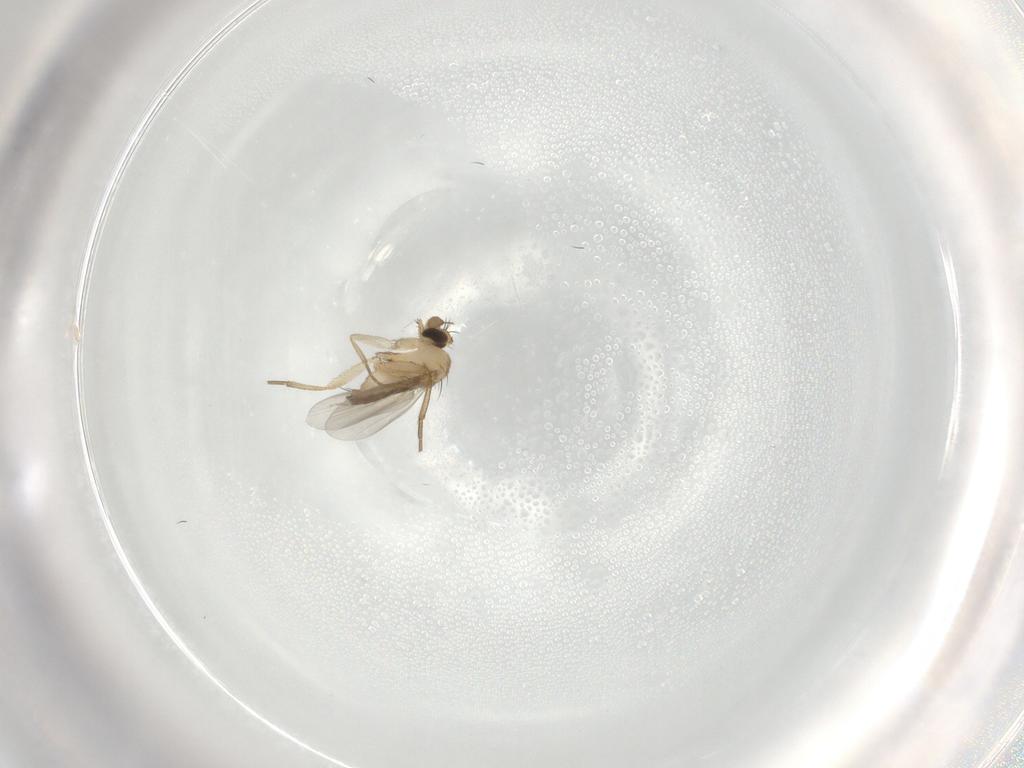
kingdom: Animalia
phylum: Arthropoda
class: Insecta
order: Diptera
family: Phoridae
